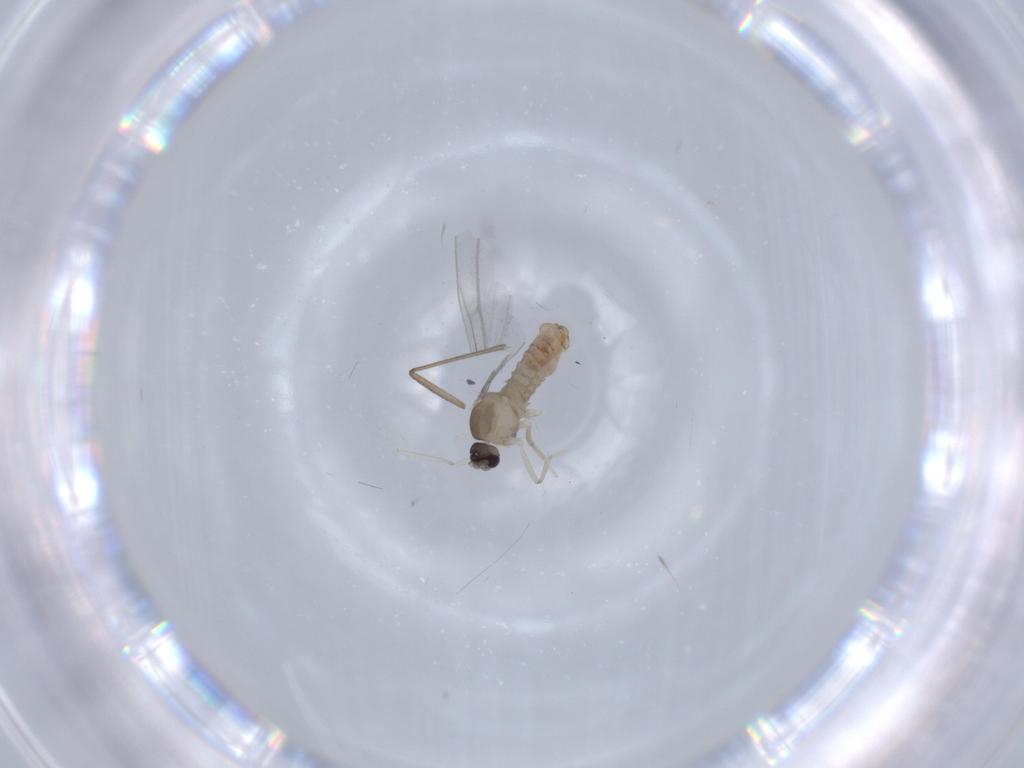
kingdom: Animalia
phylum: Arthropoda
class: Insecta
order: Diptera
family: Sciaridae
